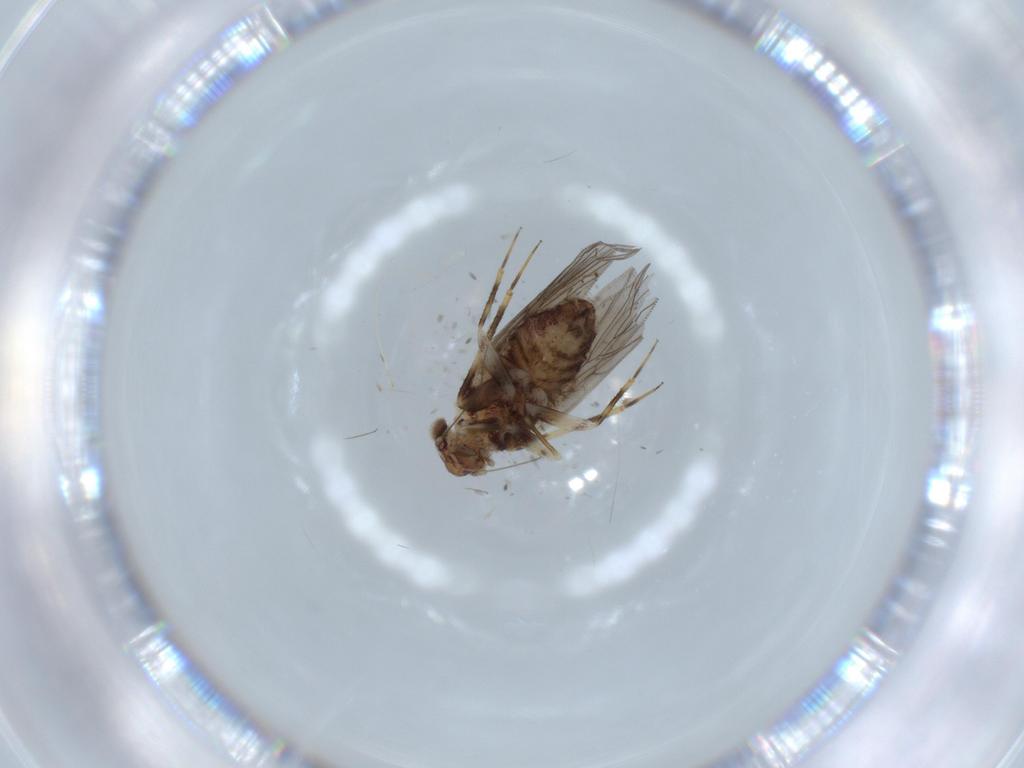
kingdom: Animalia
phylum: Arthropoda
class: Insecta
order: Psocodea
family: Lepidopsocidae
